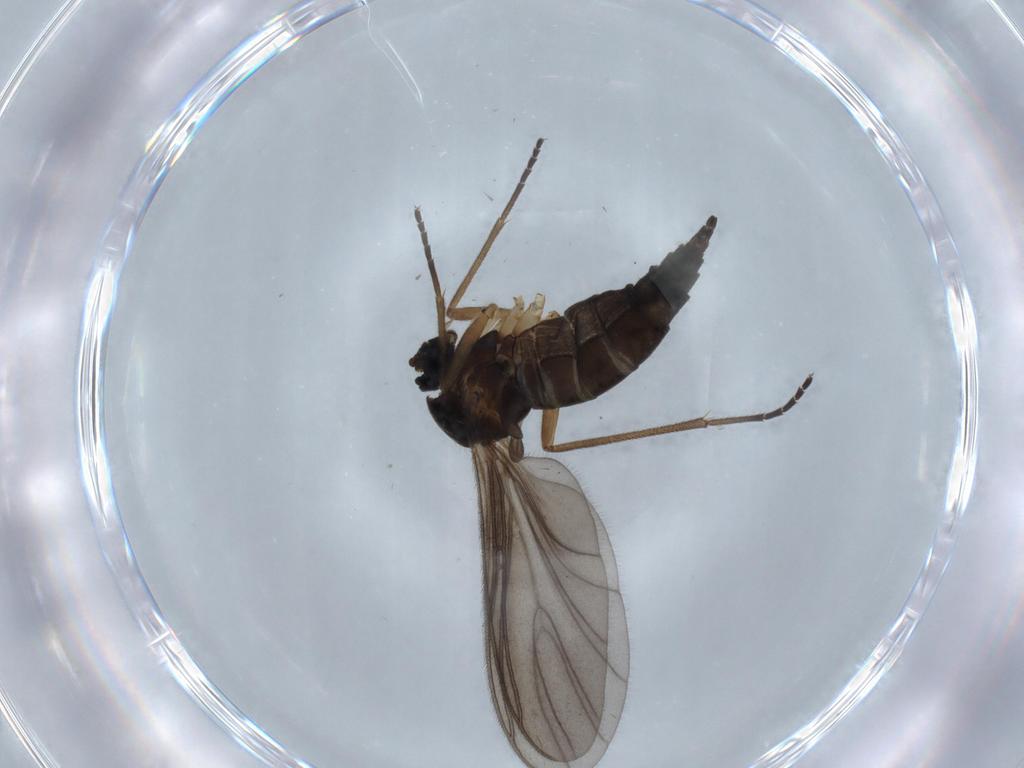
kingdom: Animalia
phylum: Arthropoda
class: Insecta
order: Diptera
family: Sciaridae
